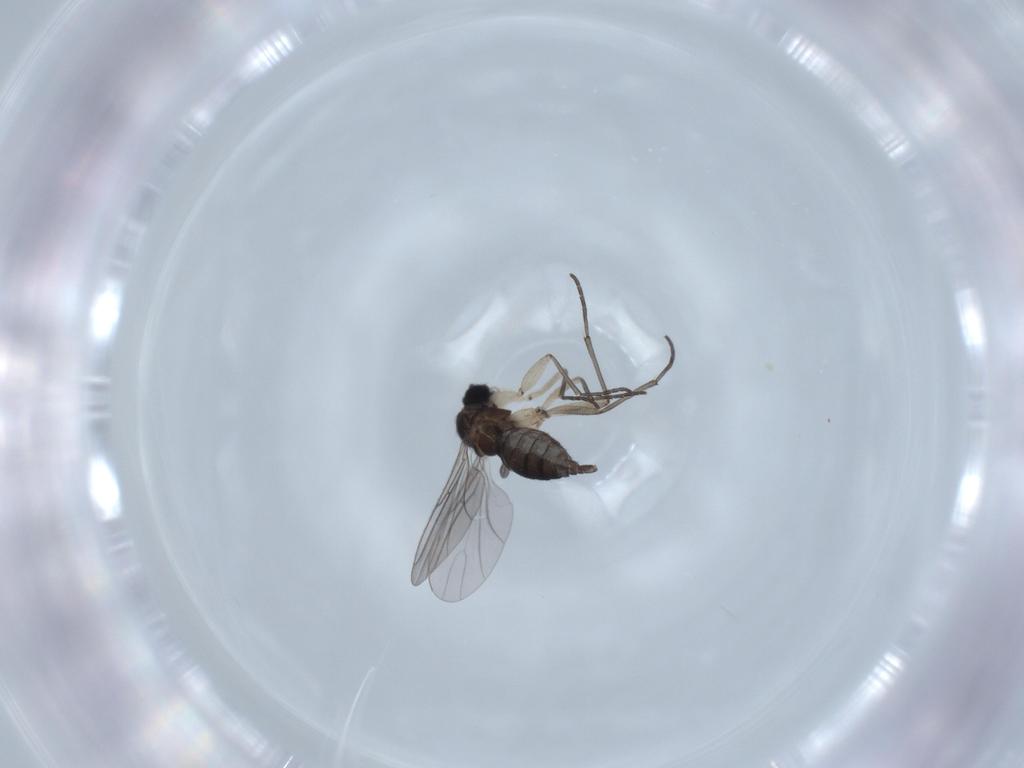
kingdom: Animalia
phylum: Arthropoda
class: Insecta
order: Diptera
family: Sciaridae
